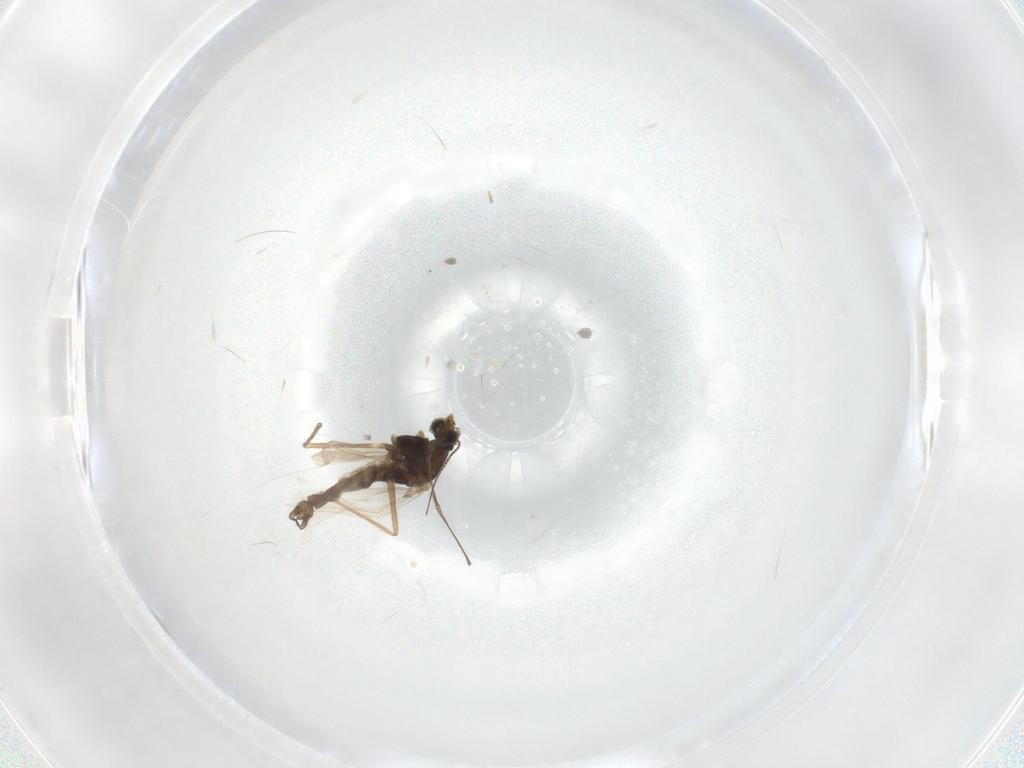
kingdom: Animalia
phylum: Arthropoda
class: Insecta
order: Diptera
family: Chironomidae
